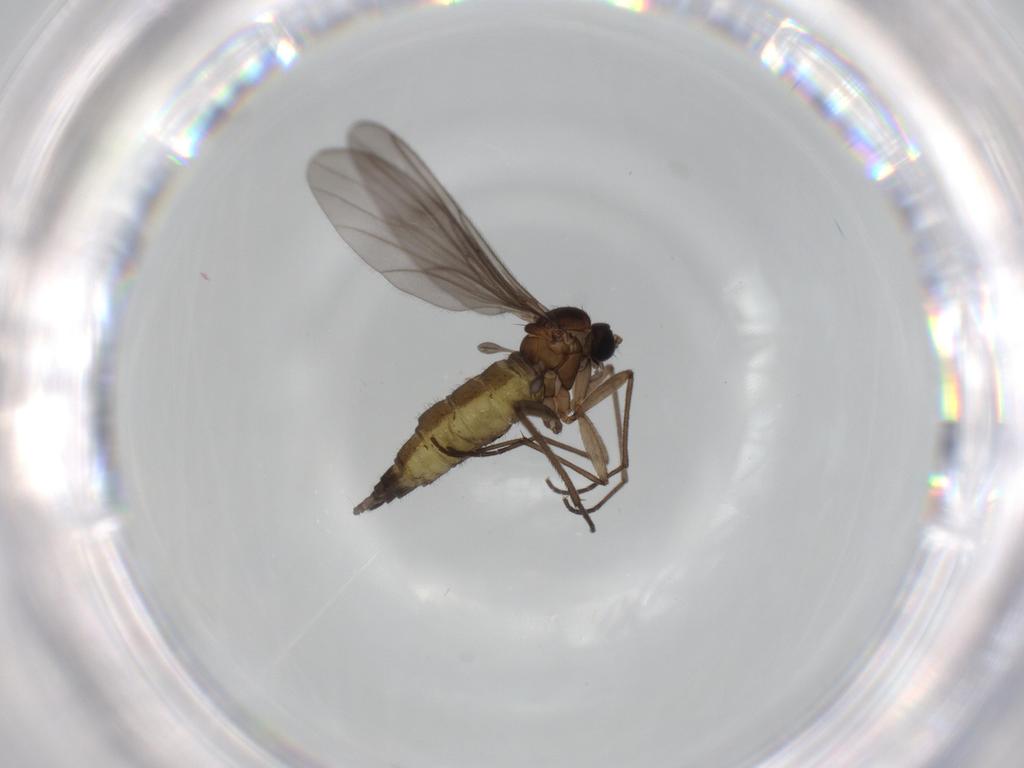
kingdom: Animalia
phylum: Arthropoda
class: Insecta
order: Diptera
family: Sciaridae
